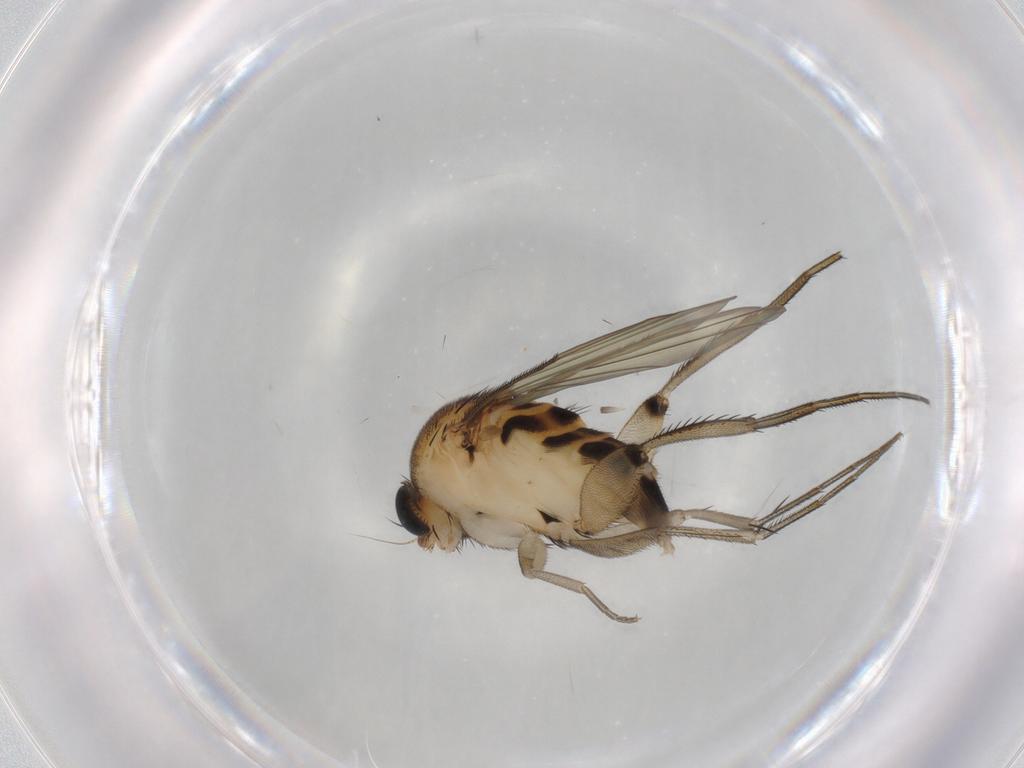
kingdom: Animalia
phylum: Arthropoda
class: Insecta
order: Diptera
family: Phoridae
